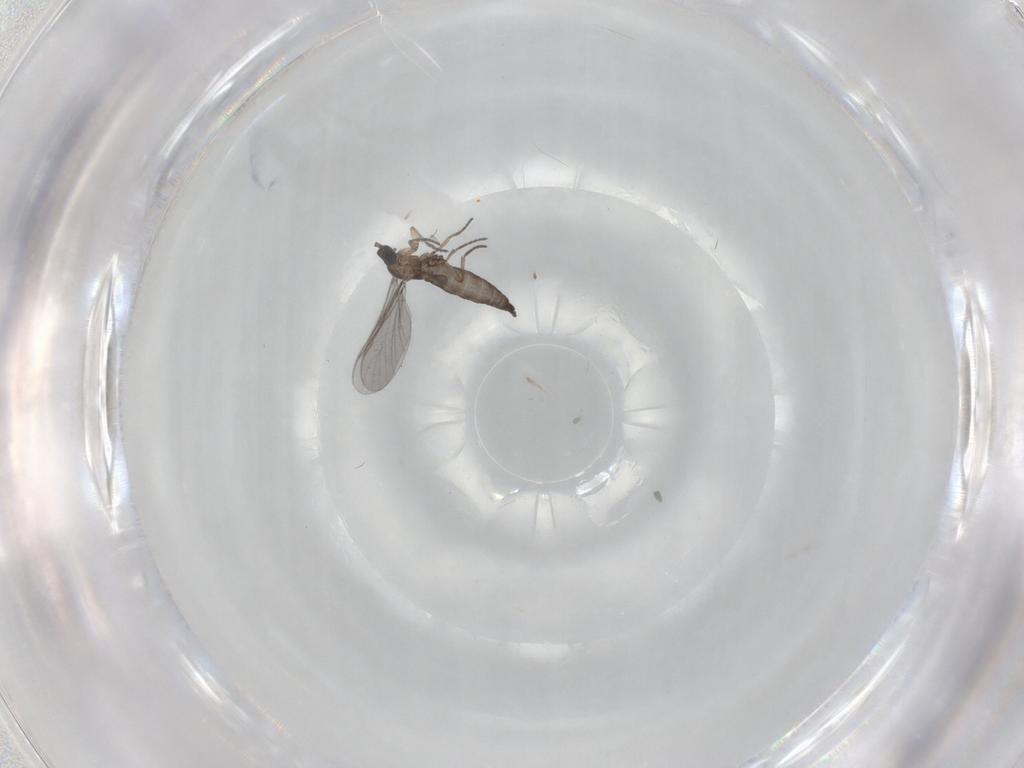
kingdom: Animalia
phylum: Arthropoda
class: Insecta
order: Diptera
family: Sciaridae
